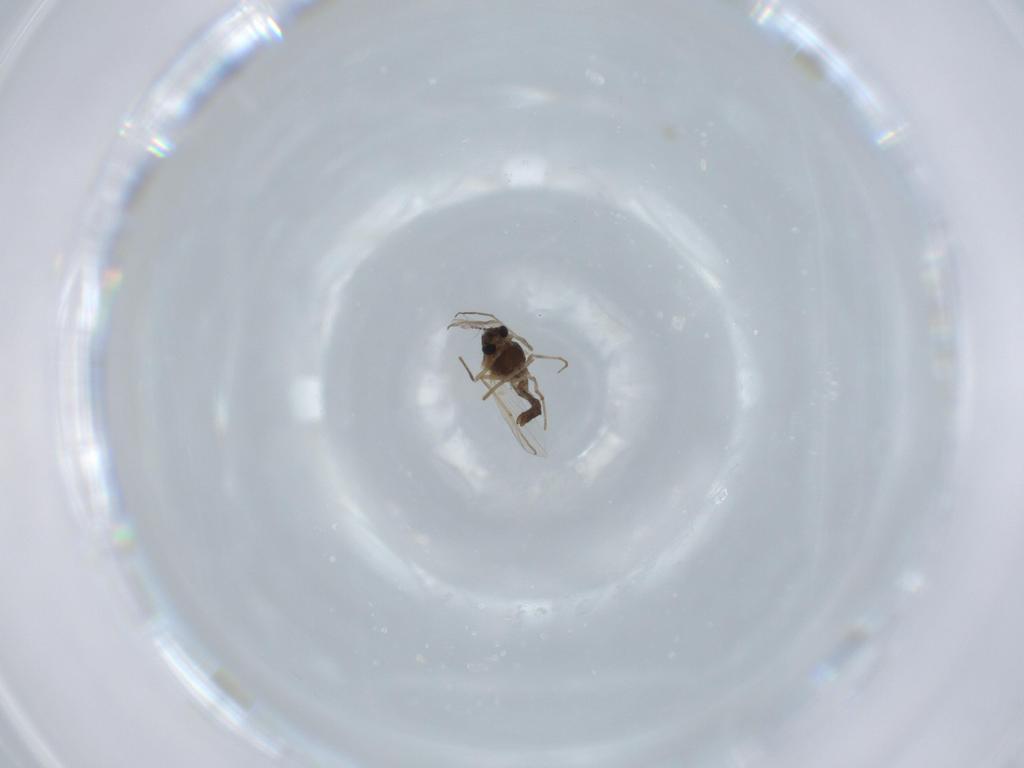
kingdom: Animalia
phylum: Arthropoda
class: Insecta
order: Diptera
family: Chironomidae
